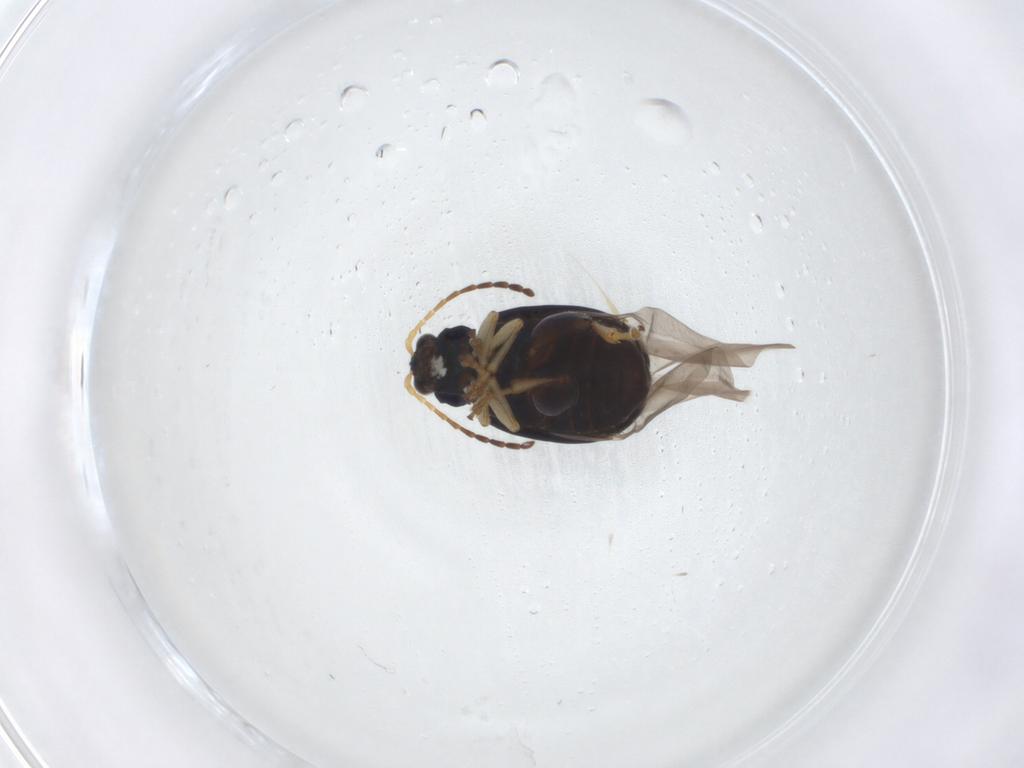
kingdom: Animalia
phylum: Arthropoda
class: Insecta
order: Coleoptera
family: Chrysomelidae
